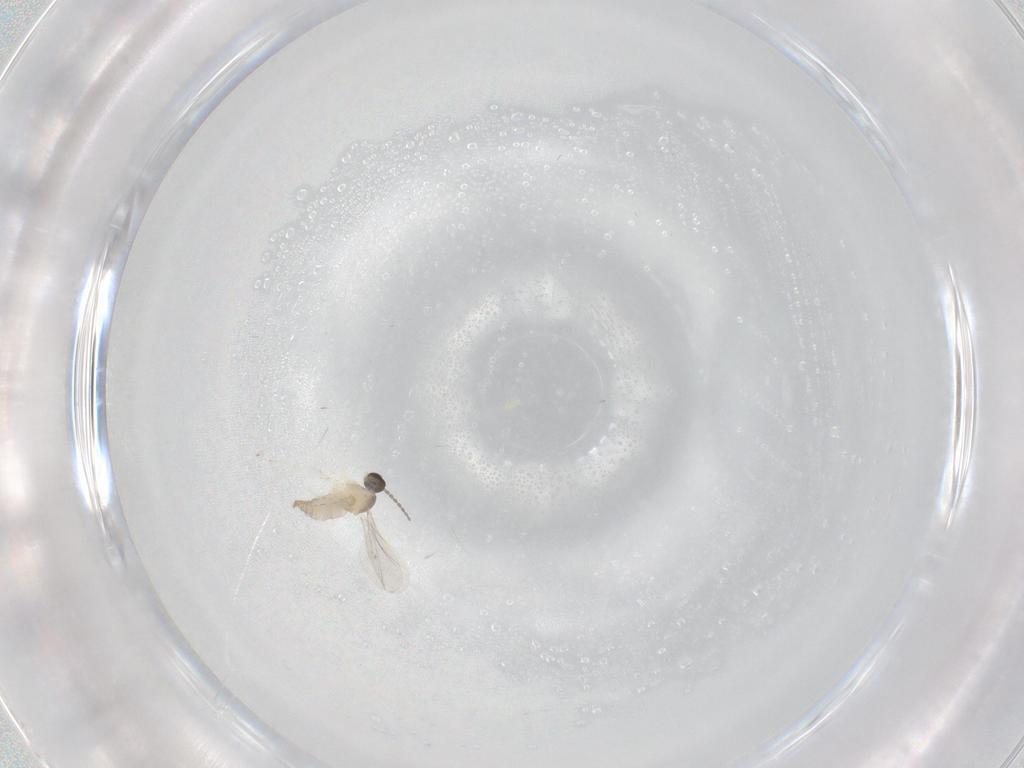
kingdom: Animalia
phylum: Arthropoda
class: Insecta
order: Diptera
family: Cecidomyiidae
